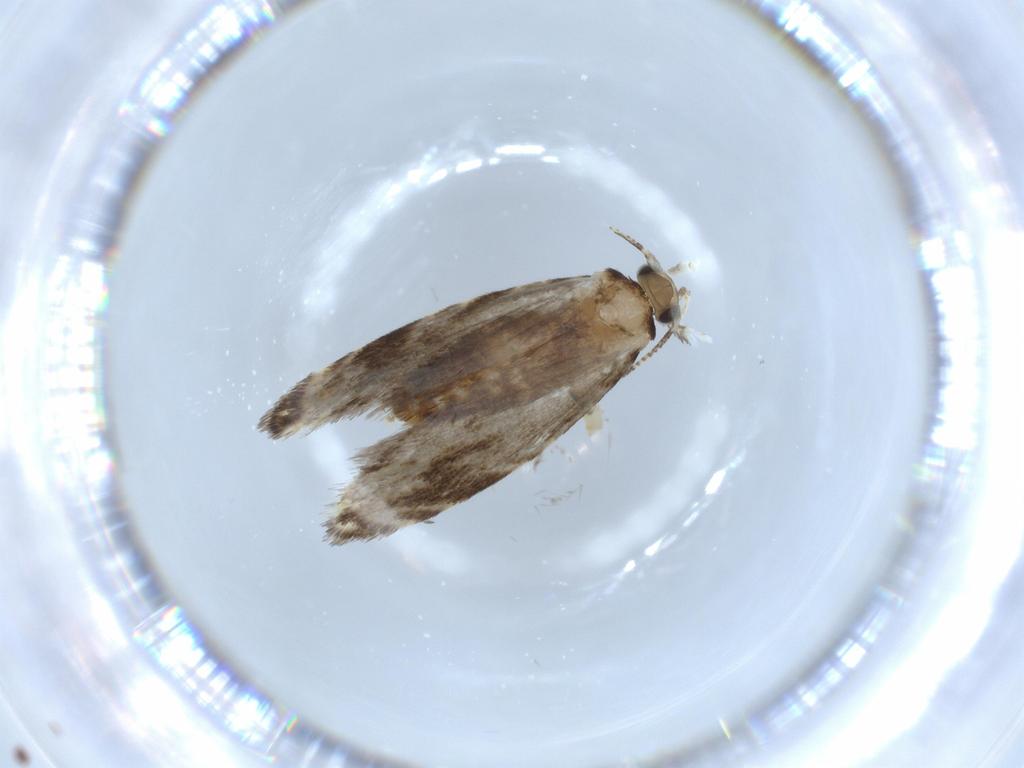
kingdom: Animalia
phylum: Arthropoda
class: Insecta
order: Lepidoptera
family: Tineidae
